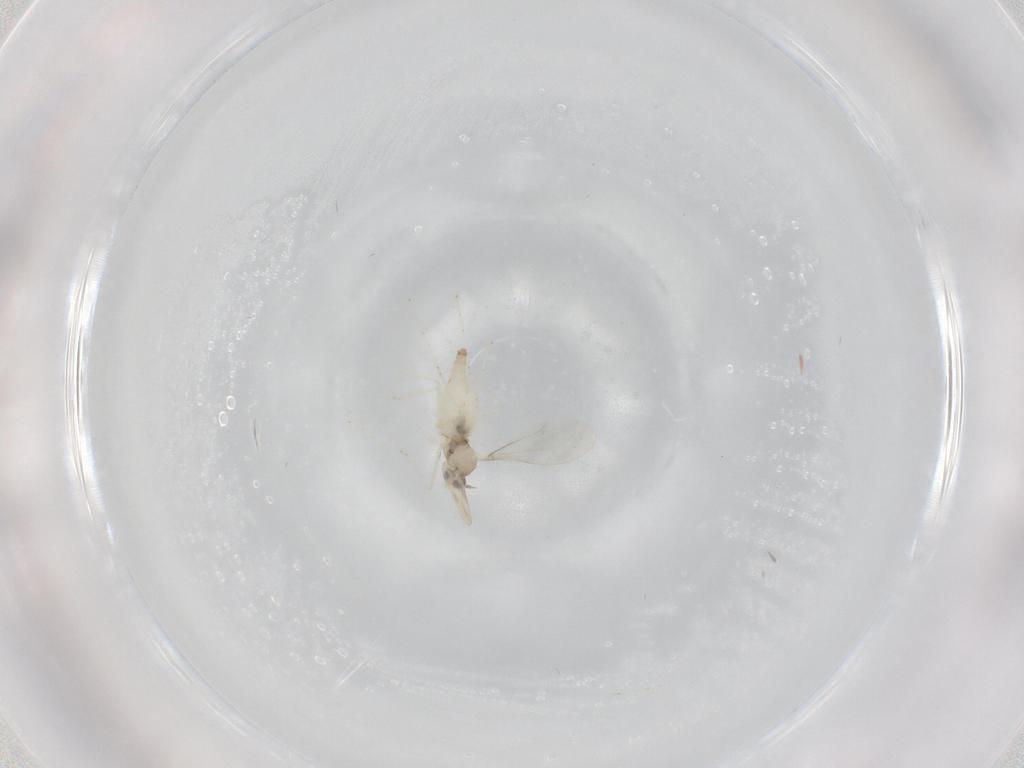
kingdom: Animalia
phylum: Arthropoda
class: Insecta
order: Diptera
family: Cecidomyiidae
